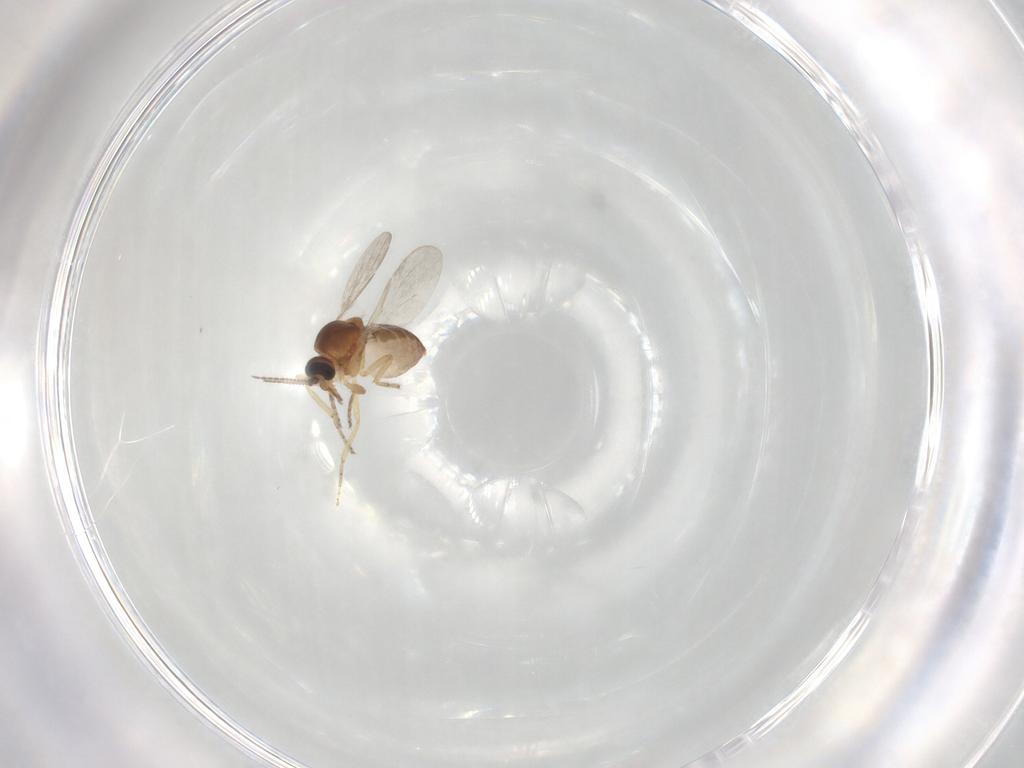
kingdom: Animalia
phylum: Arthropoda
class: Insecta
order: Diptera
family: Ceratopogonidae
